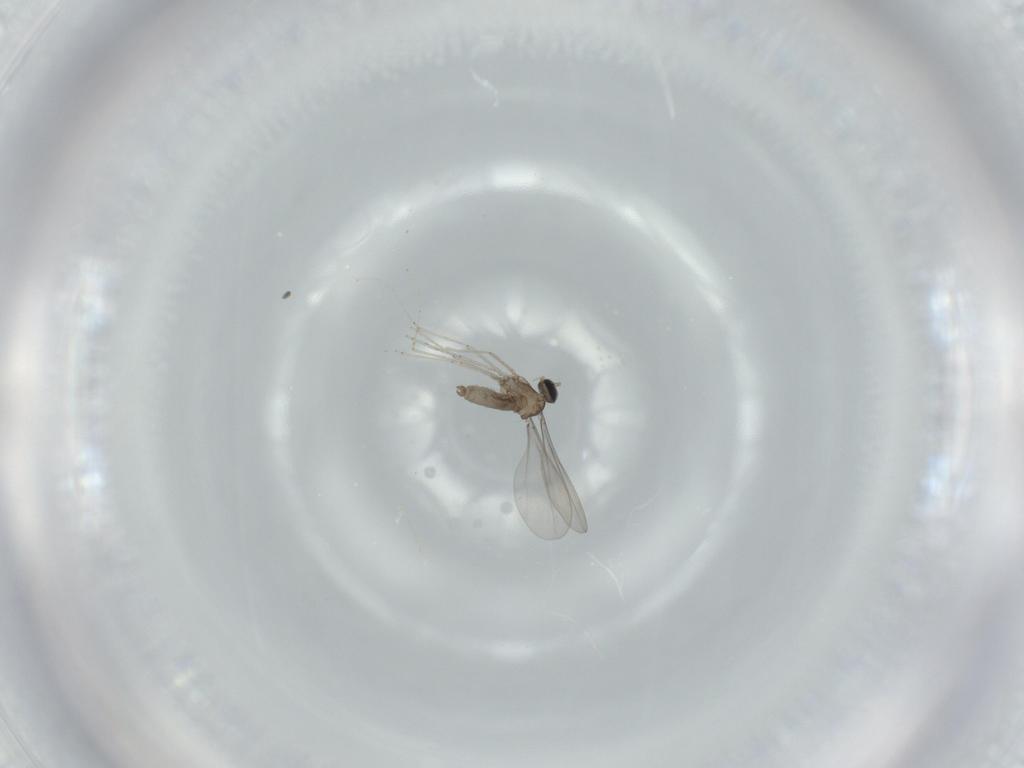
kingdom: Animalia
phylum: Arthropoda
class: Insecta
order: Diptera
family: Cecidomyiidae
